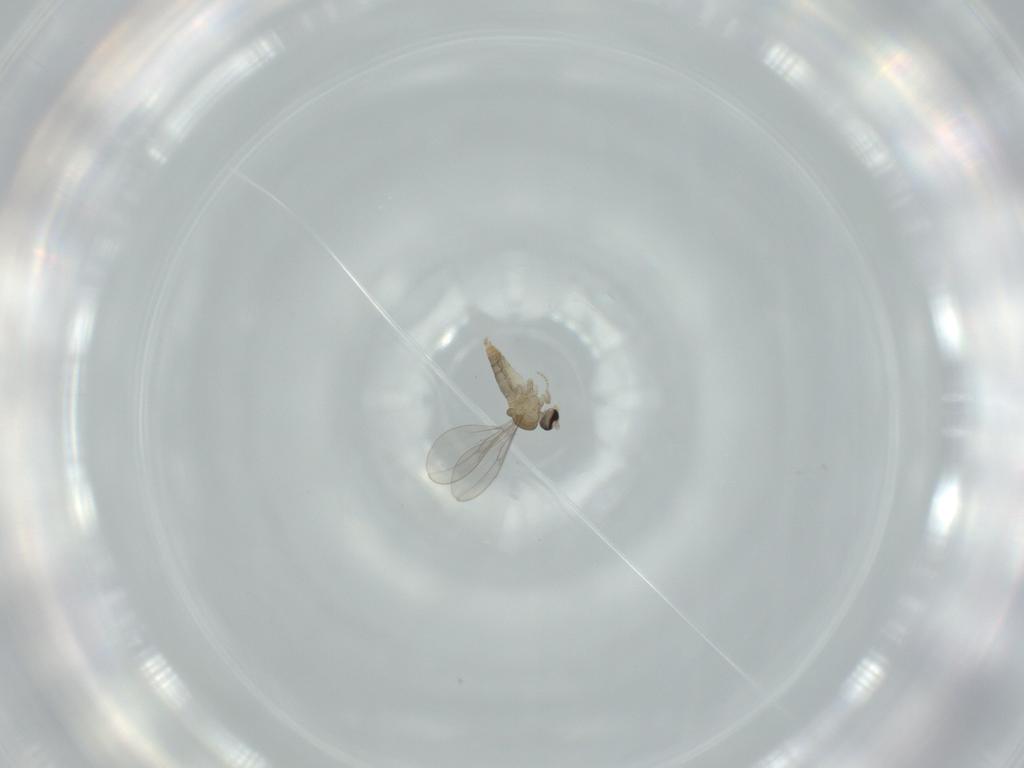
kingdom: Animalia
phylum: Arthropoda
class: Insecta
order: Diptera
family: Cecidomyiidae
